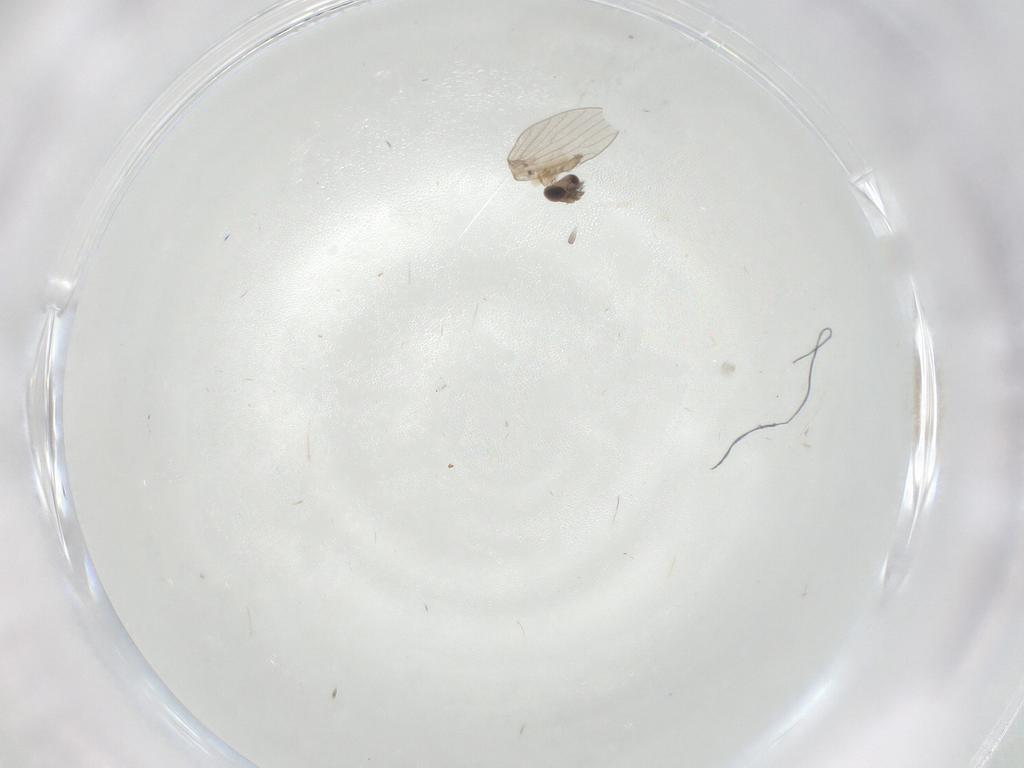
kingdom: Animalia
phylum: Arthropoda
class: Insecta
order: Diptera
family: Psychodidae
